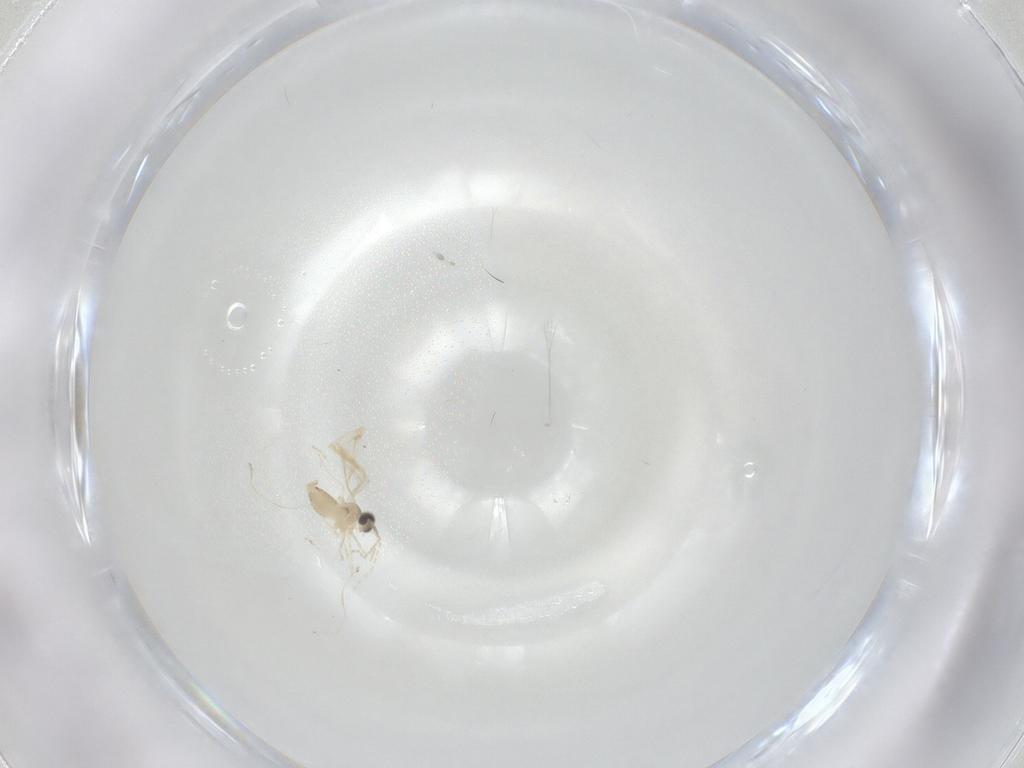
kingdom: Animalia
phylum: Arthropoda
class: Insecta
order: Diptera
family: Cecidomyiidae
